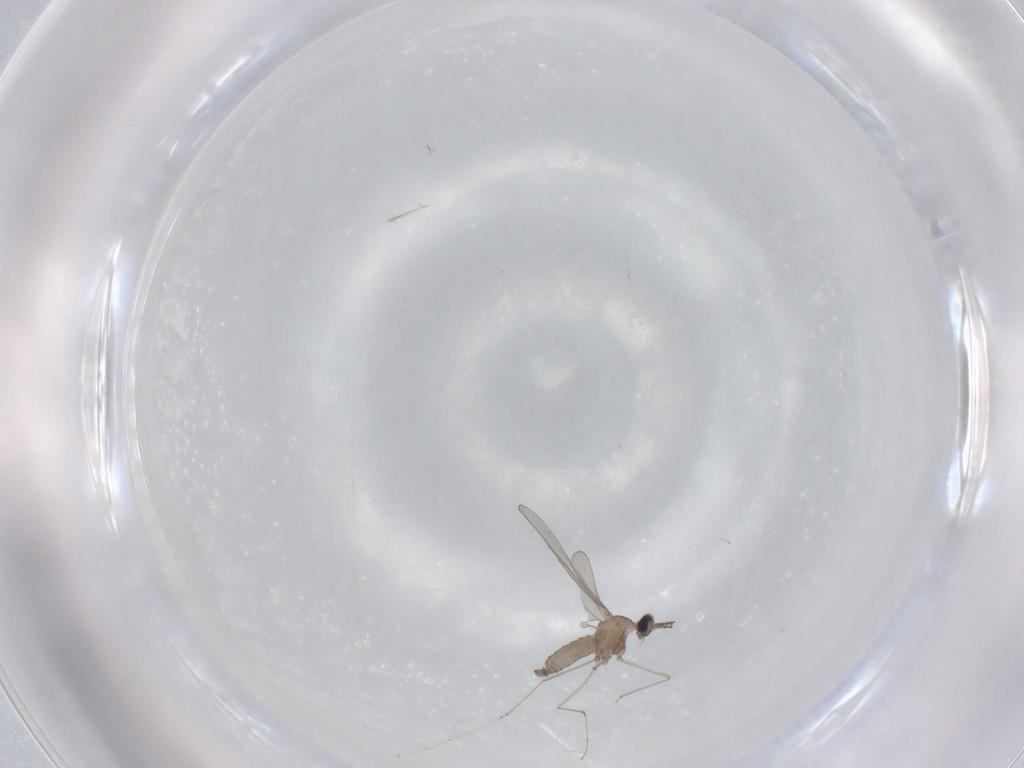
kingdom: Animalia
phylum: Arthropoda
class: Insecta
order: Diptera
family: Cecidomyiidae
